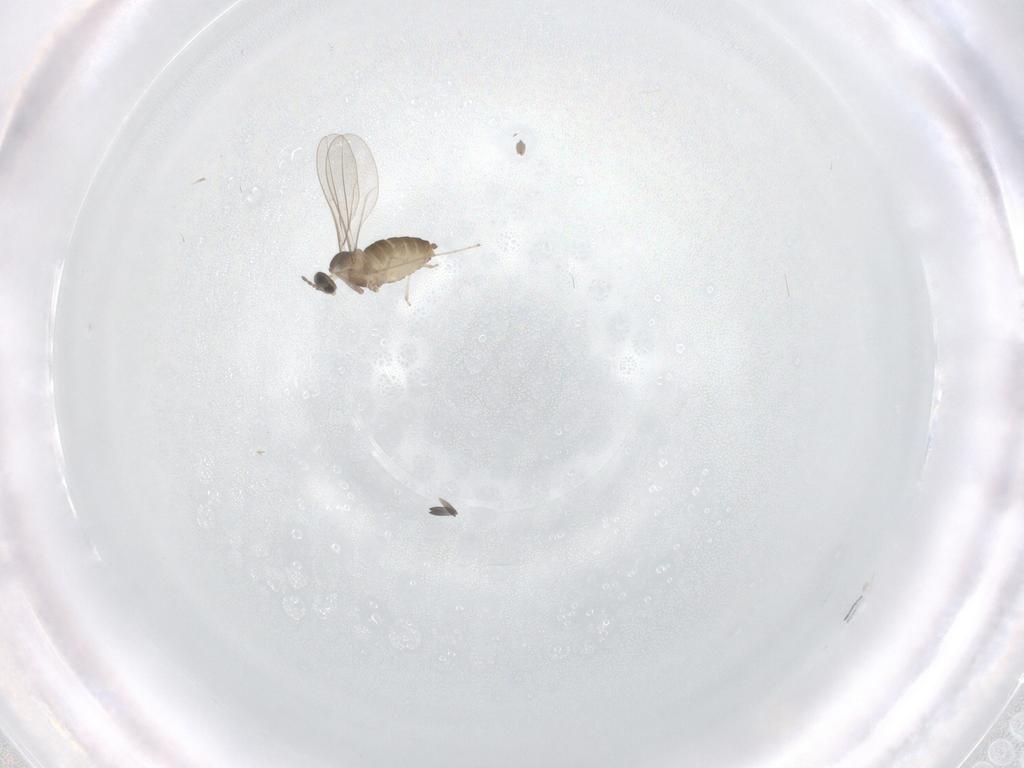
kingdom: Animalia
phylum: Arthropoda
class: Insecta
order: Diptera
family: Cecidomyiidae
